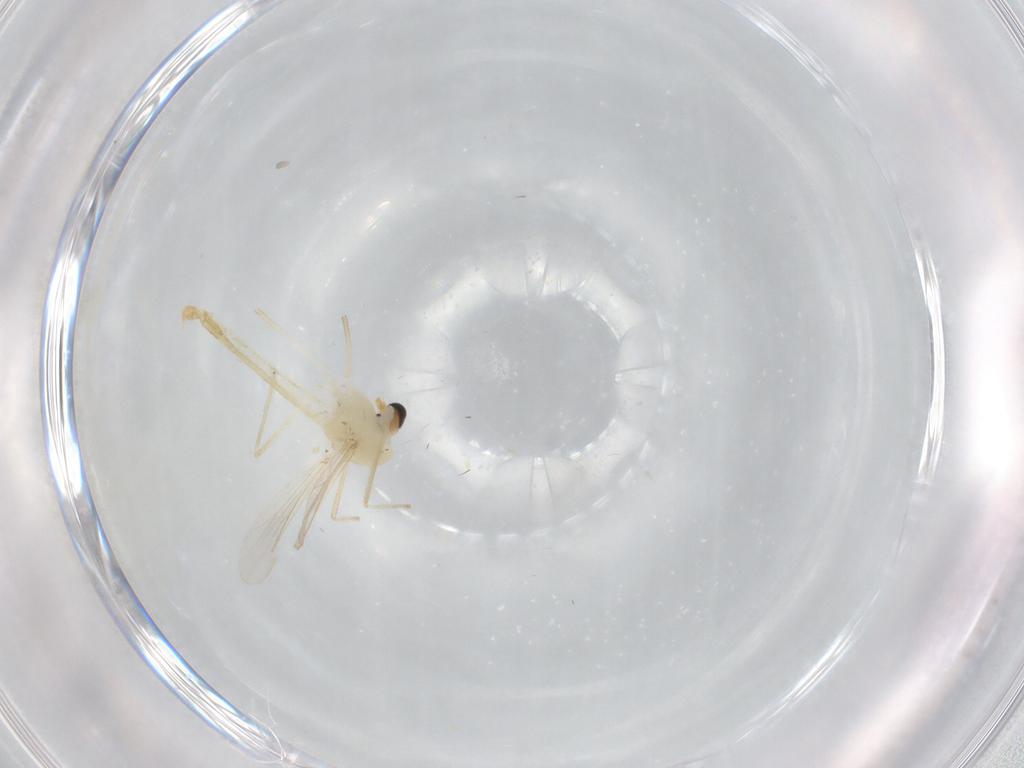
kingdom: Animalia
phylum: Arthropoda
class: Insecta
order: Diptera
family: Chironomidae
